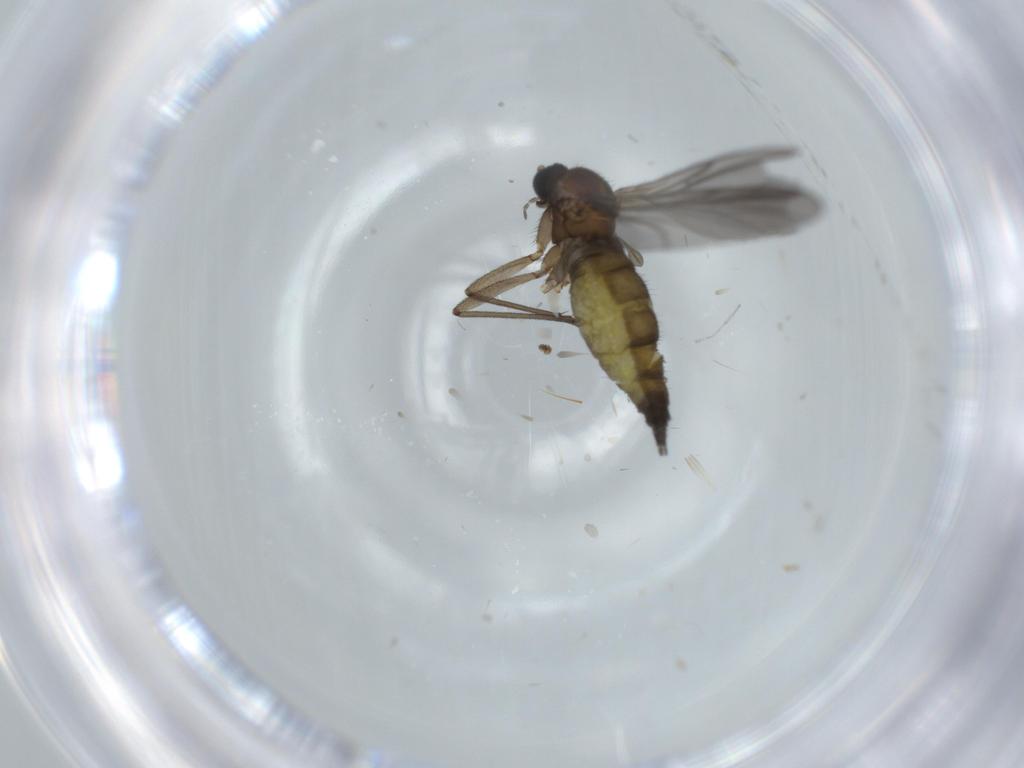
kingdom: Animalia
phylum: Arthropoda
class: Insecta
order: Diptera
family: Sciaridae
